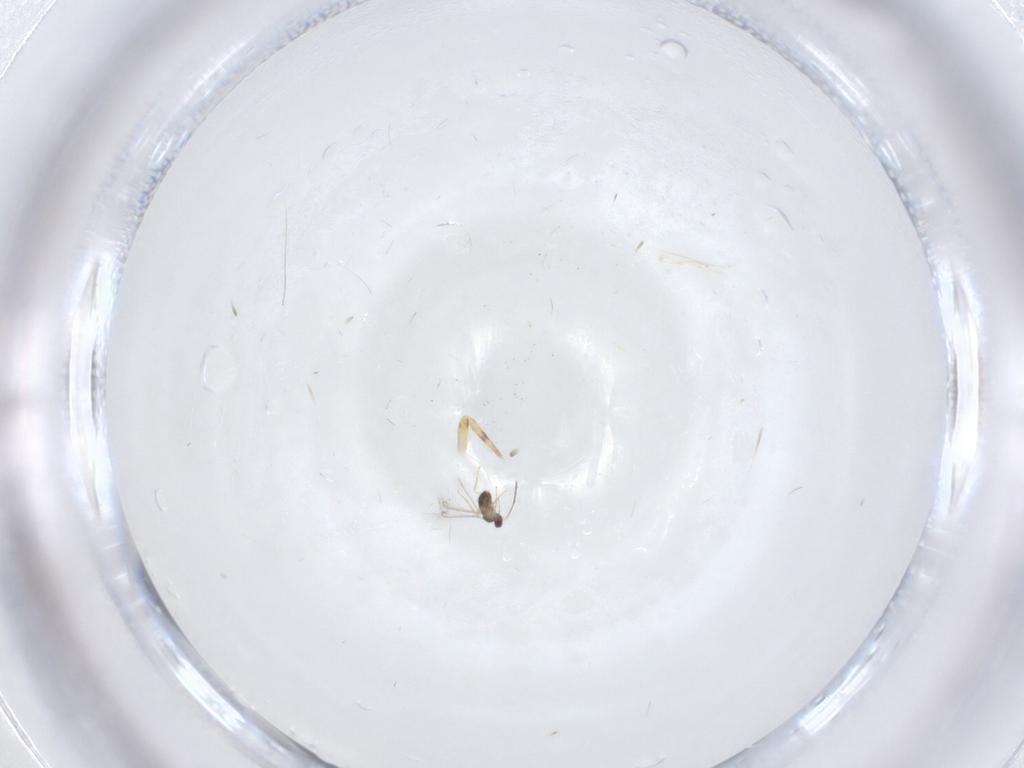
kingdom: Animalia
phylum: Arthropoda
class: Insecta
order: Hymenoptera
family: Mymaridae
